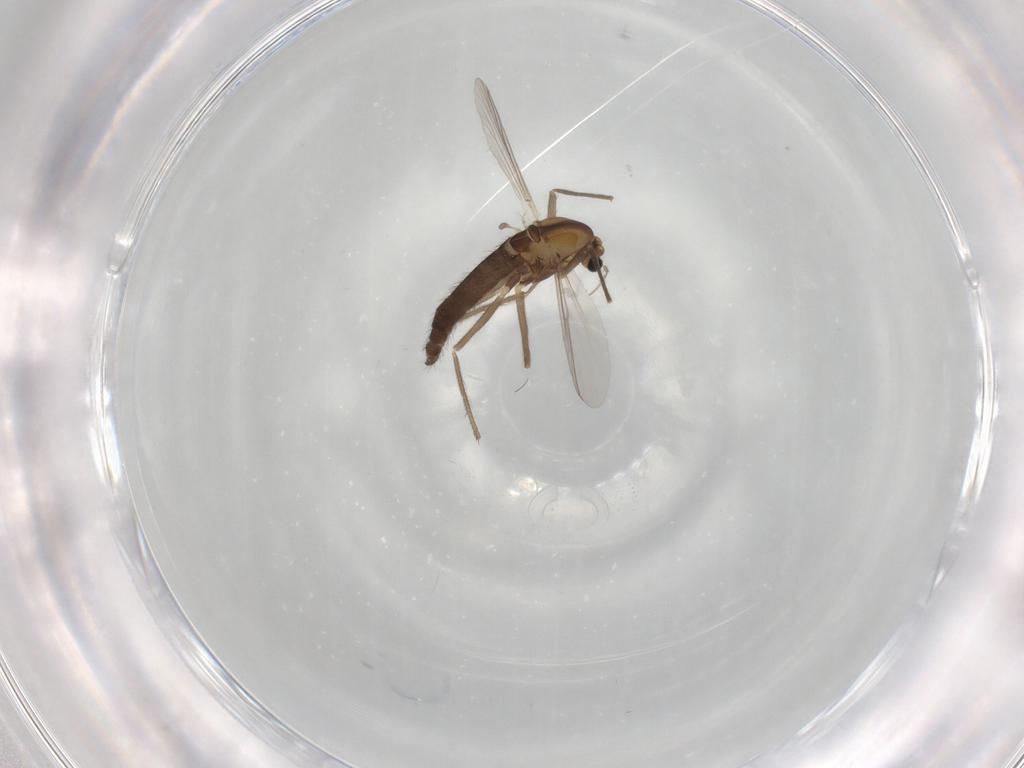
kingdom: Animalia
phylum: Arthropoda
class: Insecta
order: Diptera
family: Chironomidae
